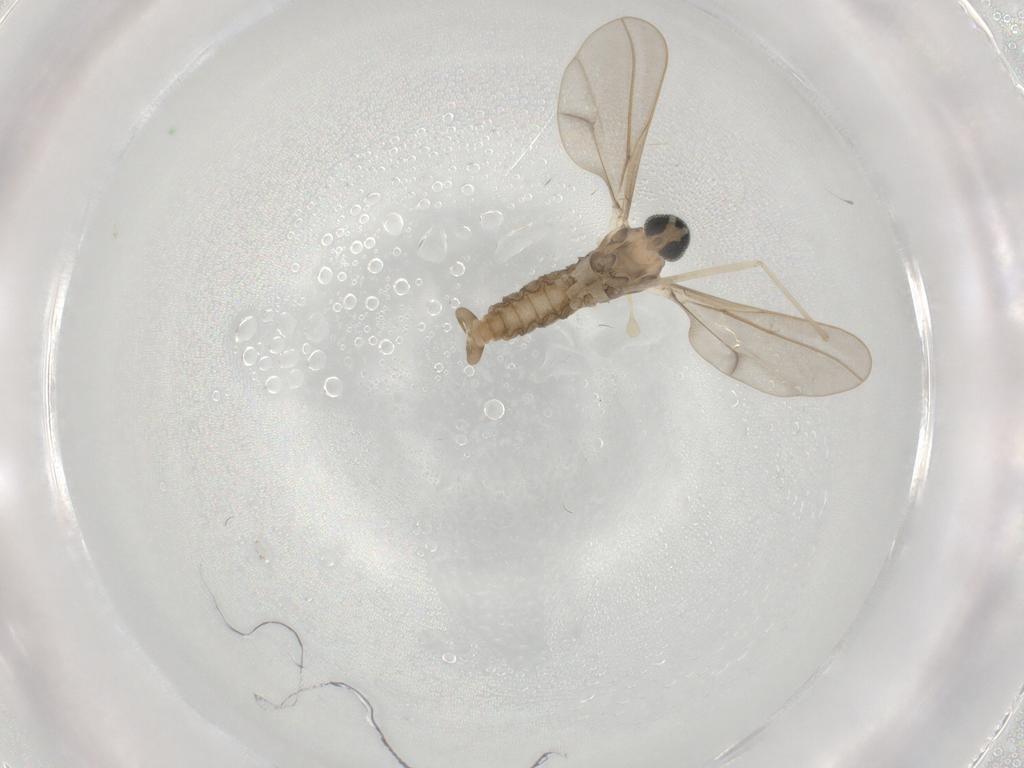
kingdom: Animalia
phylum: Arthropoda
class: Insecta
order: Diptera
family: Cecidomyiidae
